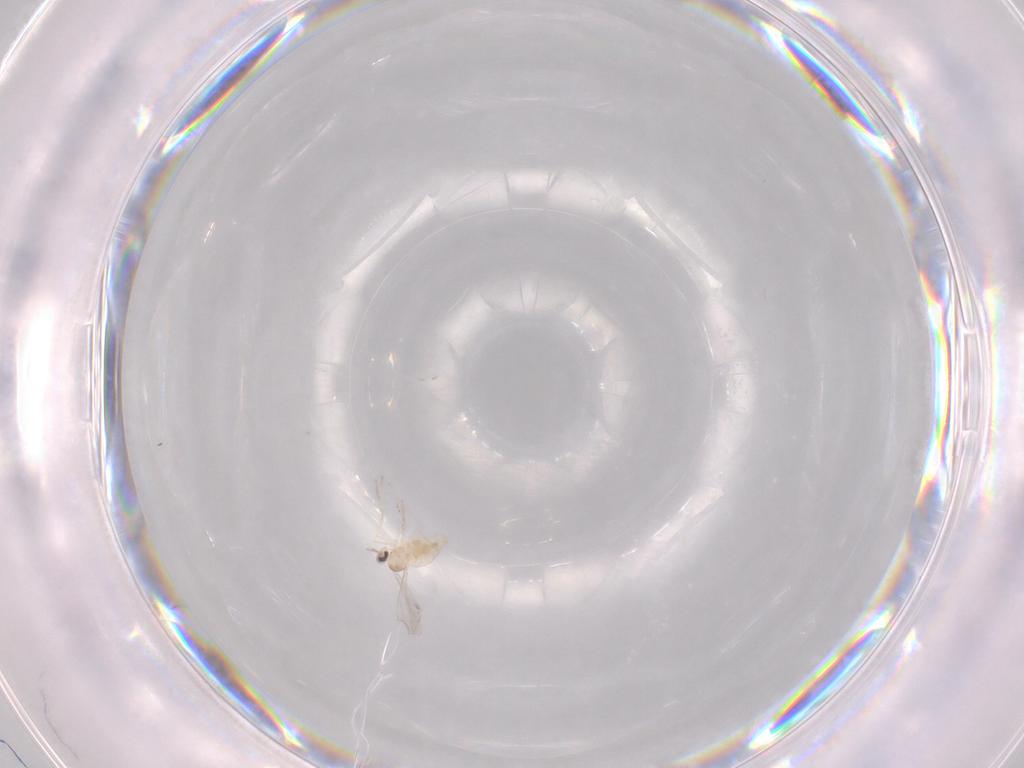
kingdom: Animalia
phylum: Arthropoda
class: Insecta
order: Diptera
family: Cecidomyiidae
